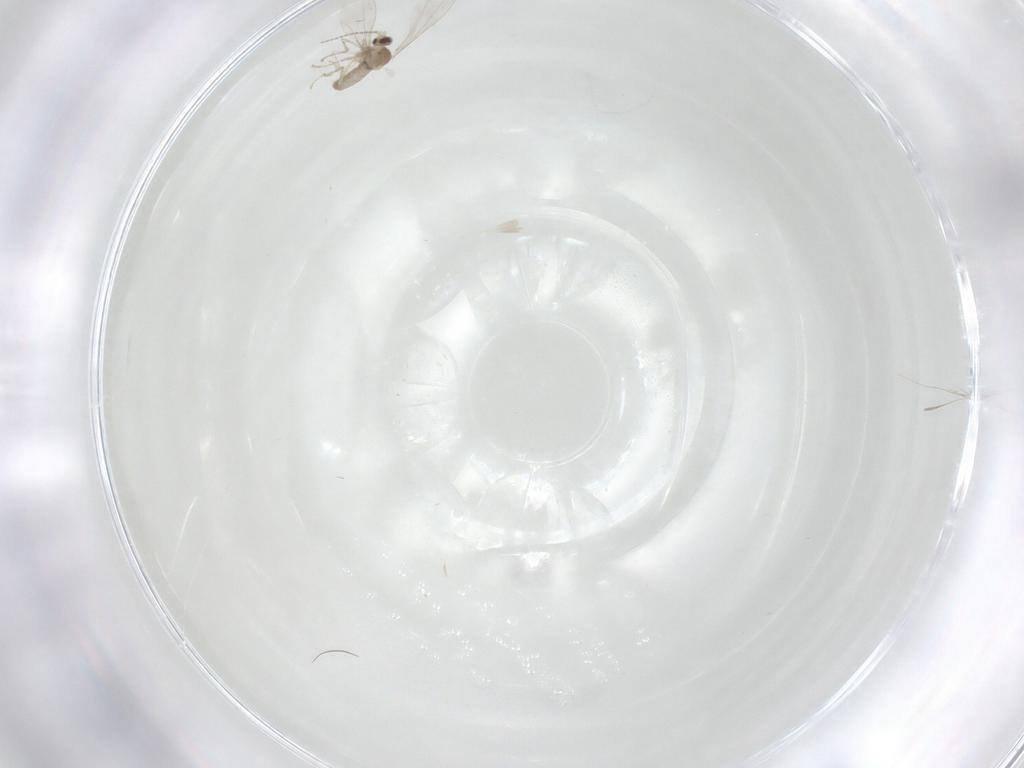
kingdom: Animalia
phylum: Arthropoda
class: Insecta
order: Diptera
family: Cecidomyiidae
